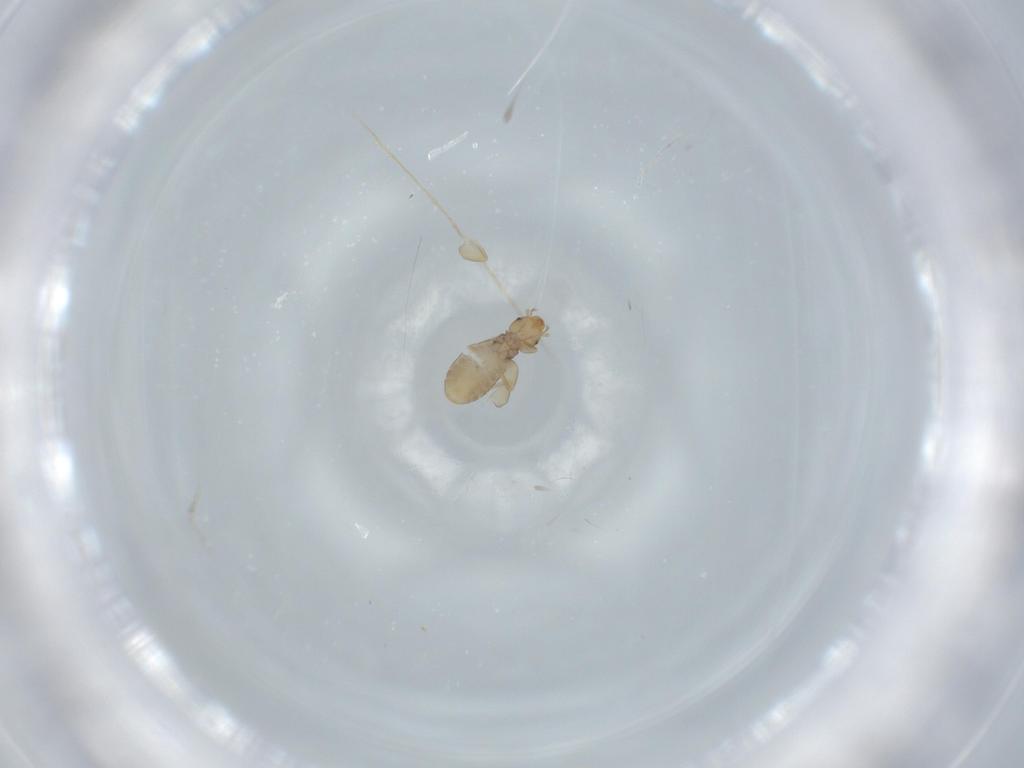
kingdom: Animalia
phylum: Arthropoda
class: Insecta
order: Psocodea
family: Liposcelididae
